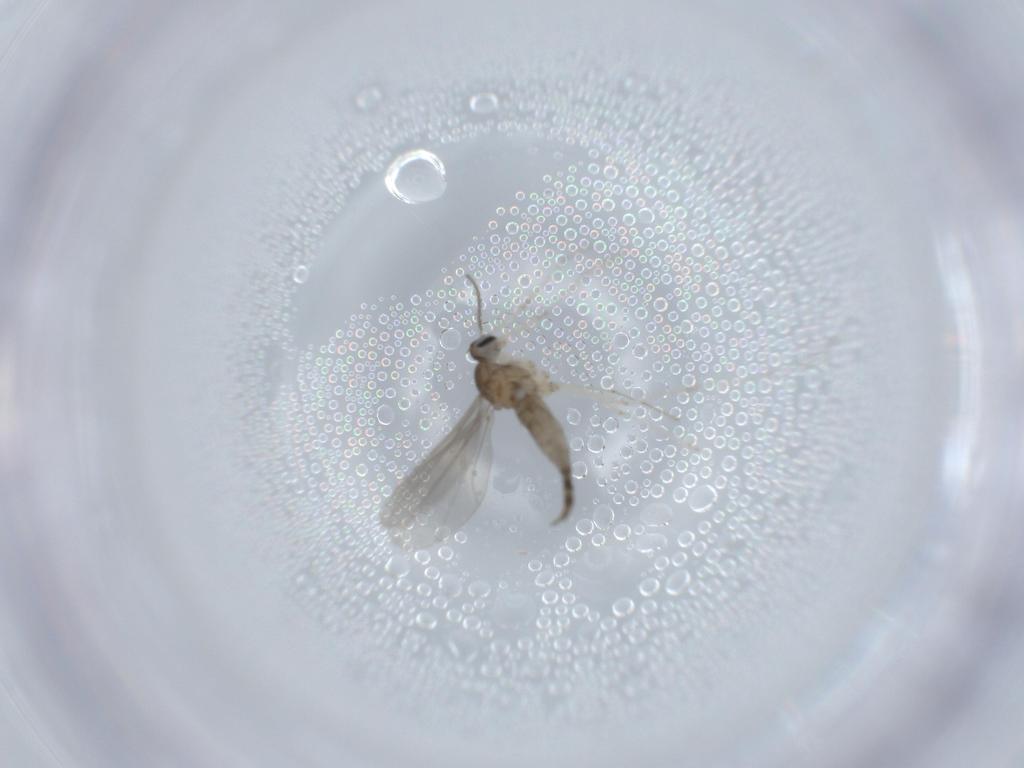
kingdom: Animalia
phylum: Arthropoda
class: Insecta
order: Diptera
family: Cecidomyiidae
